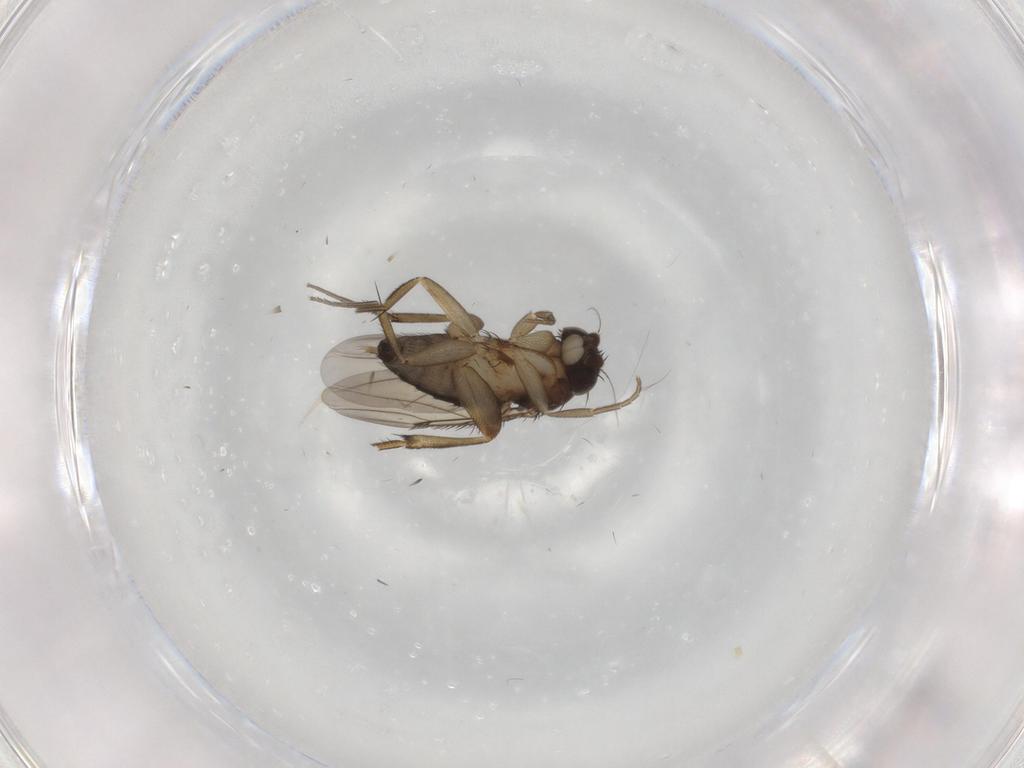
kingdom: Animalia
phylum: Arthropoda
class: Insecta
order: Diptera
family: Phoridae
